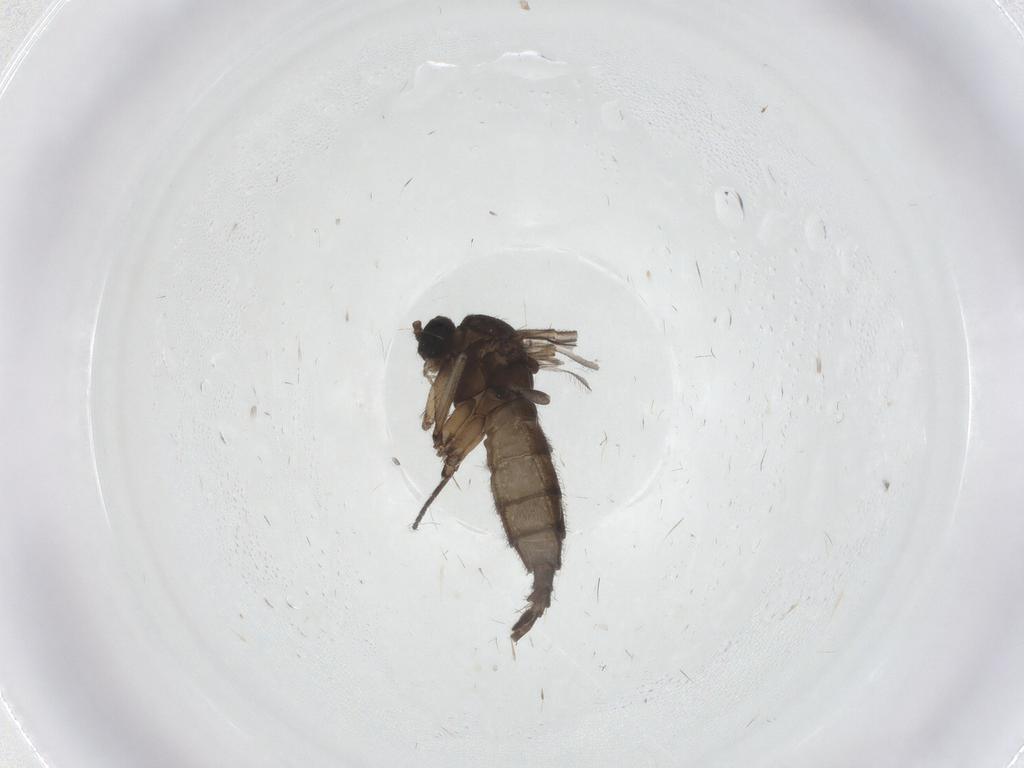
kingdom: Animalia
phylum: Arthropoda
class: Insecta
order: Diptera
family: Sciaridae
